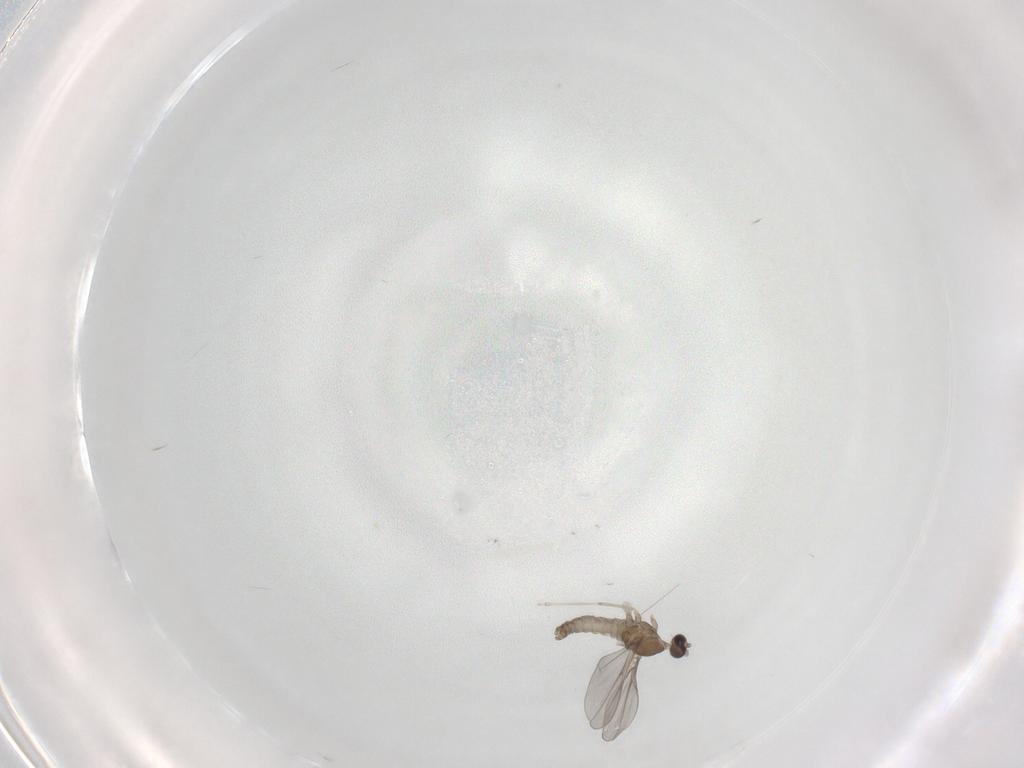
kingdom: Animalia
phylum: Arthropoda
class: Insecta
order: Diptera
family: Cecidomyiidae
